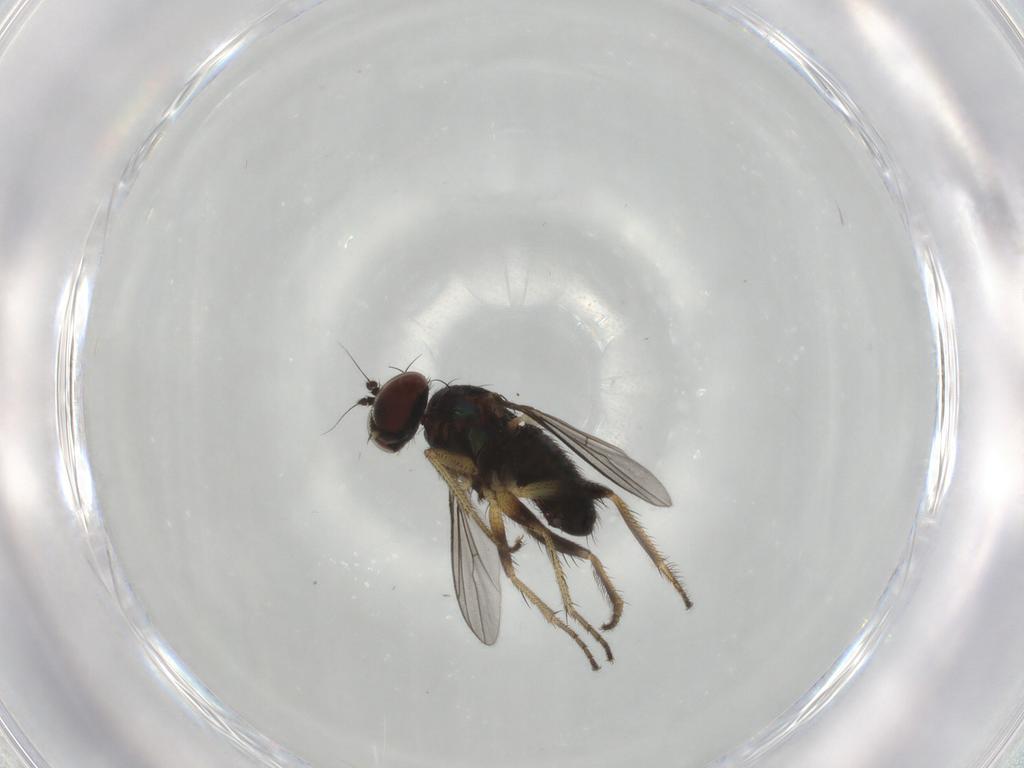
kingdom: Animalia
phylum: Arthropoda
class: Insecta
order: Diptera
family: Dolichopodidae
